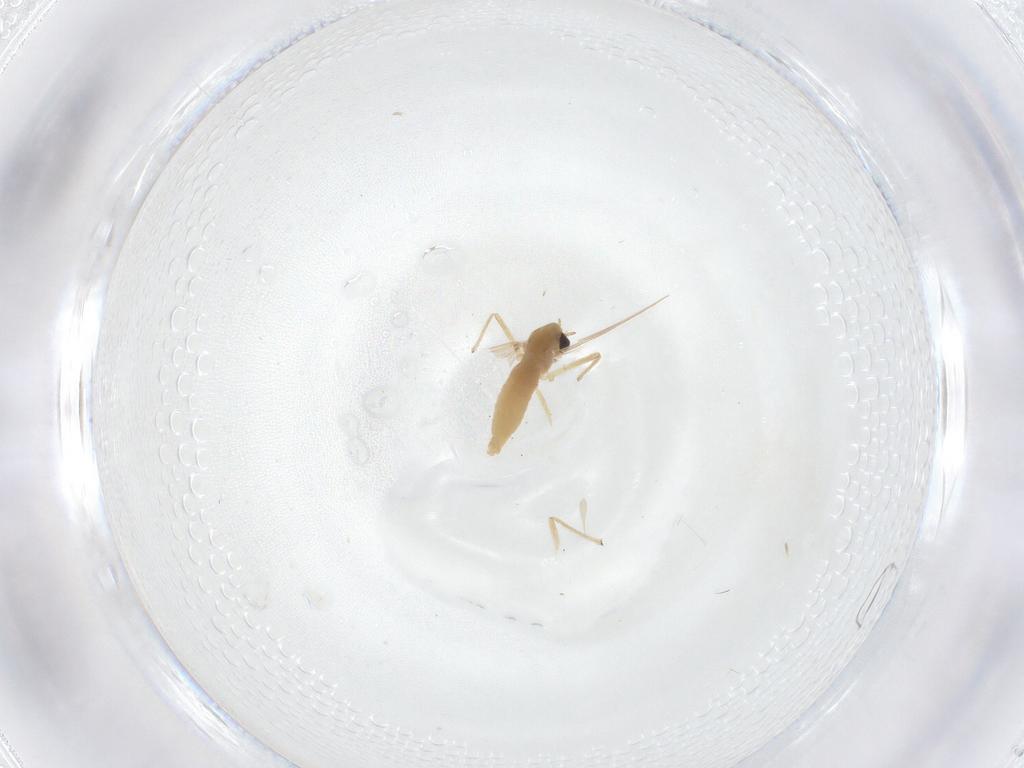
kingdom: Animalia
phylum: Arthropoda
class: Insecta
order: Diptera
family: Chironomidae
